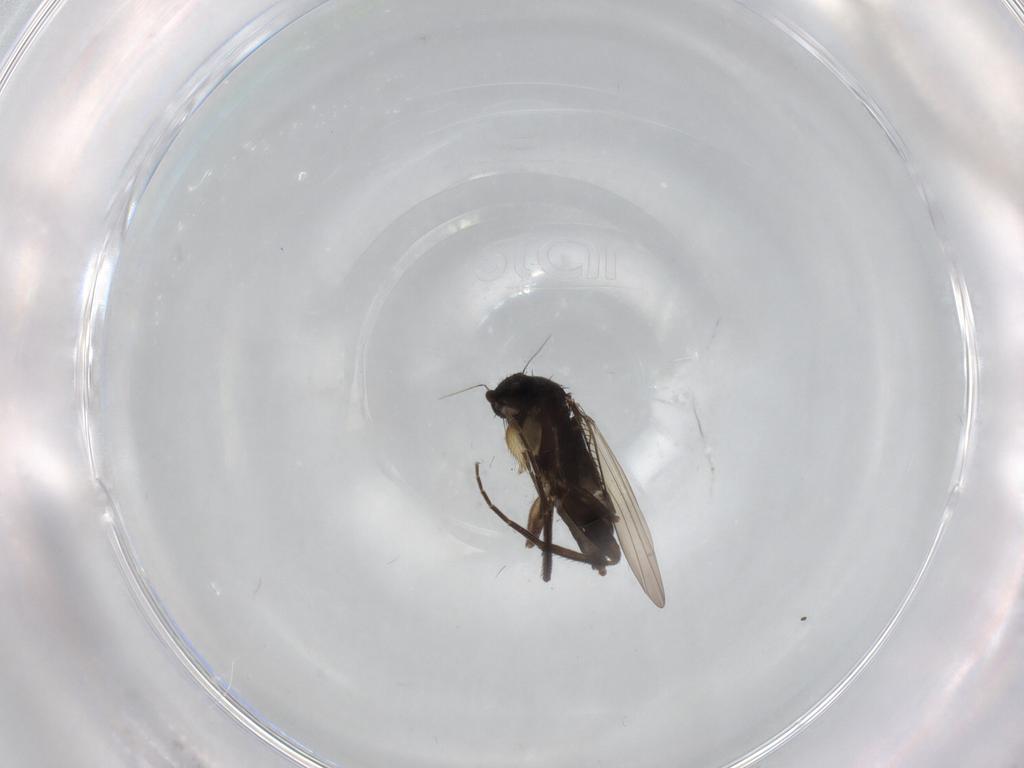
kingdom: Animalia
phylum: Arthropoda
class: Insecta
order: Diptera
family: Phoridae
